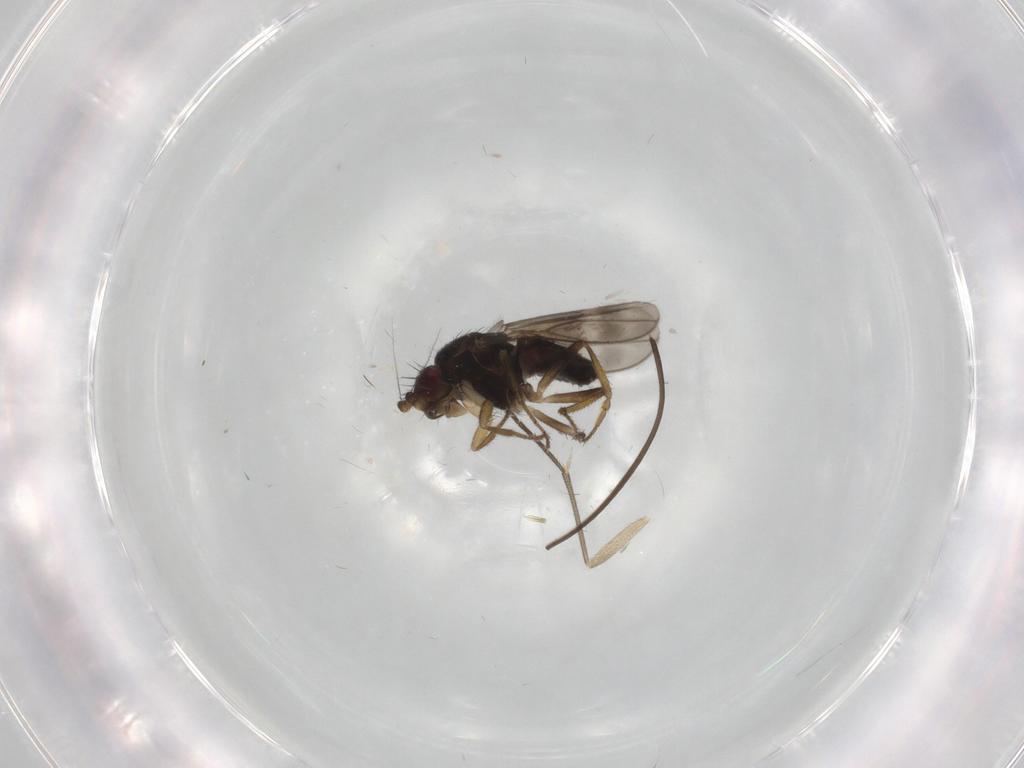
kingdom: Animalia
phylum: Arthropoda
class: Insecta
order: Diptera
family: Sphaeroceridae
